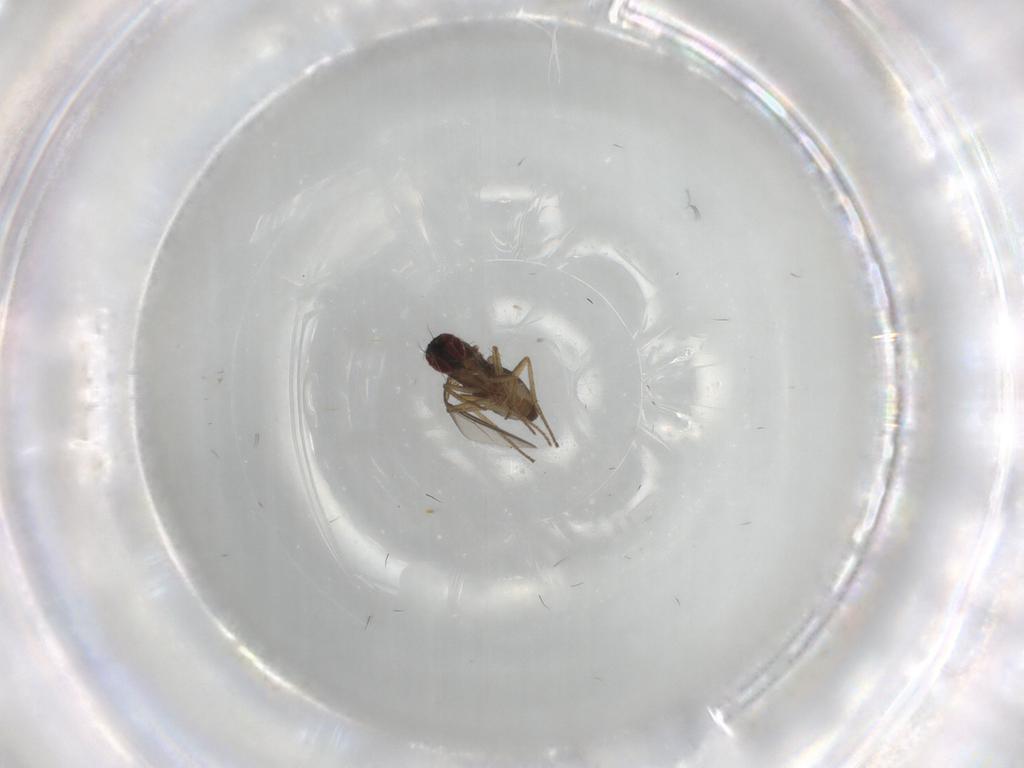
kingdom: Animalia
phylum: Arthropoda
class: Insecta
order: Diptera
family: Dolichopodidae
